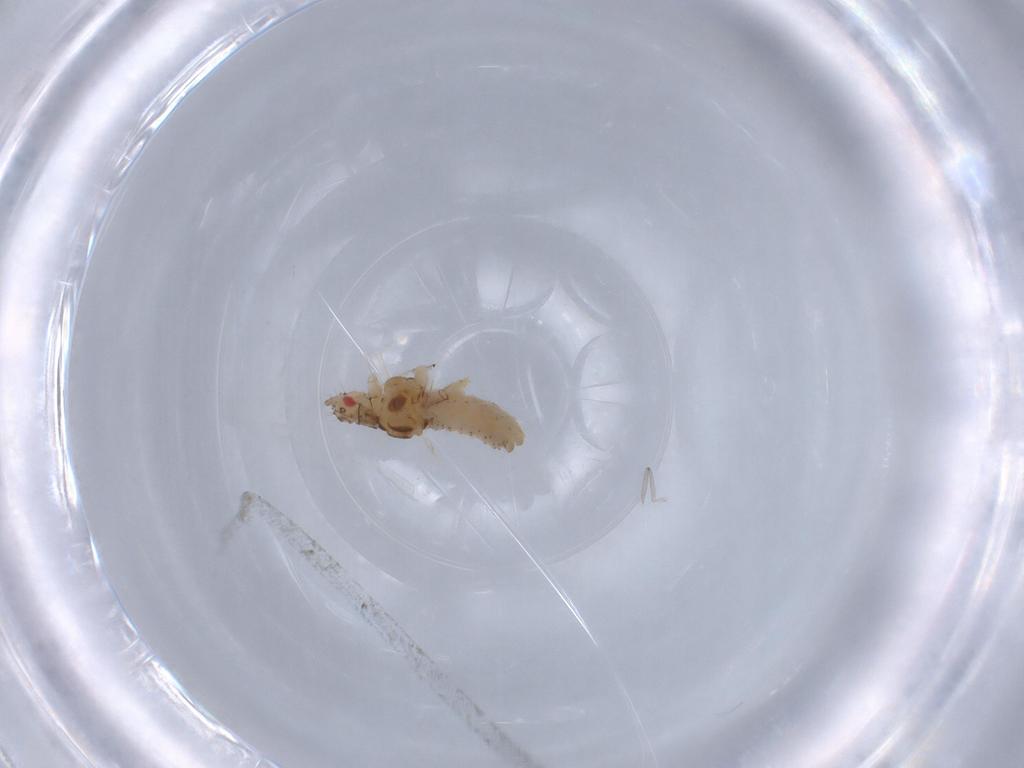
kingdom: Animalia
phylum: Arthropoda
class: Insecta
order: Hemiptera
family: Aphididae
